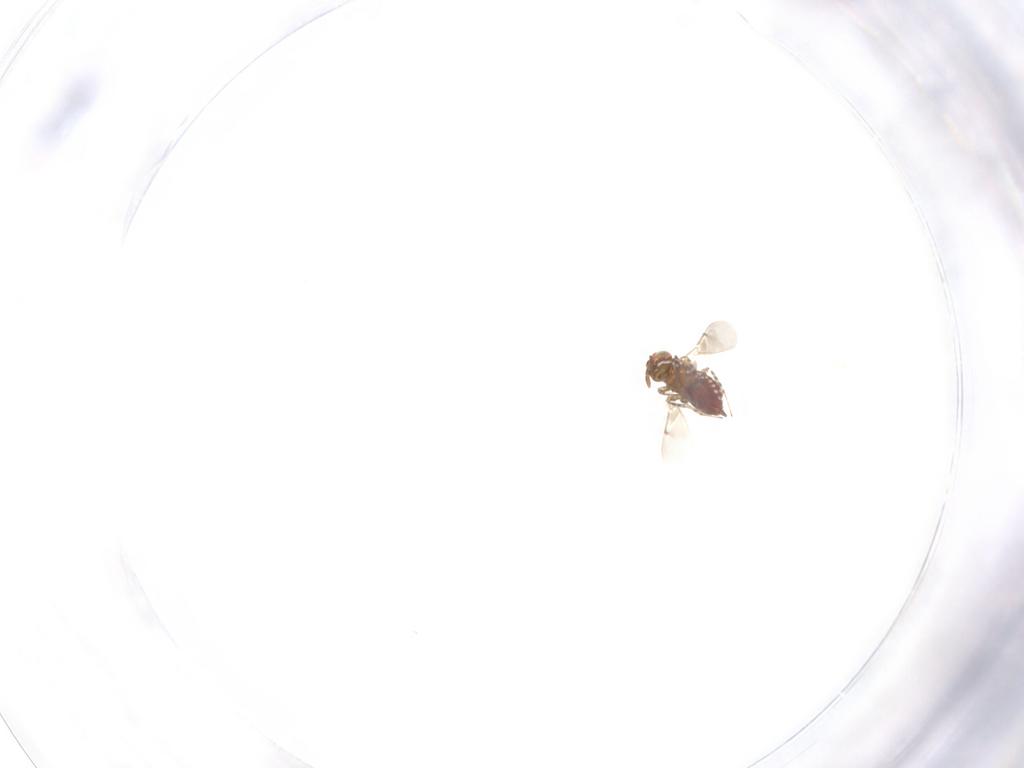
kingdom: Animalia
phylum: Arthropoda
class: Insecta
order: Hymenoptera
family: Aphelinidae
